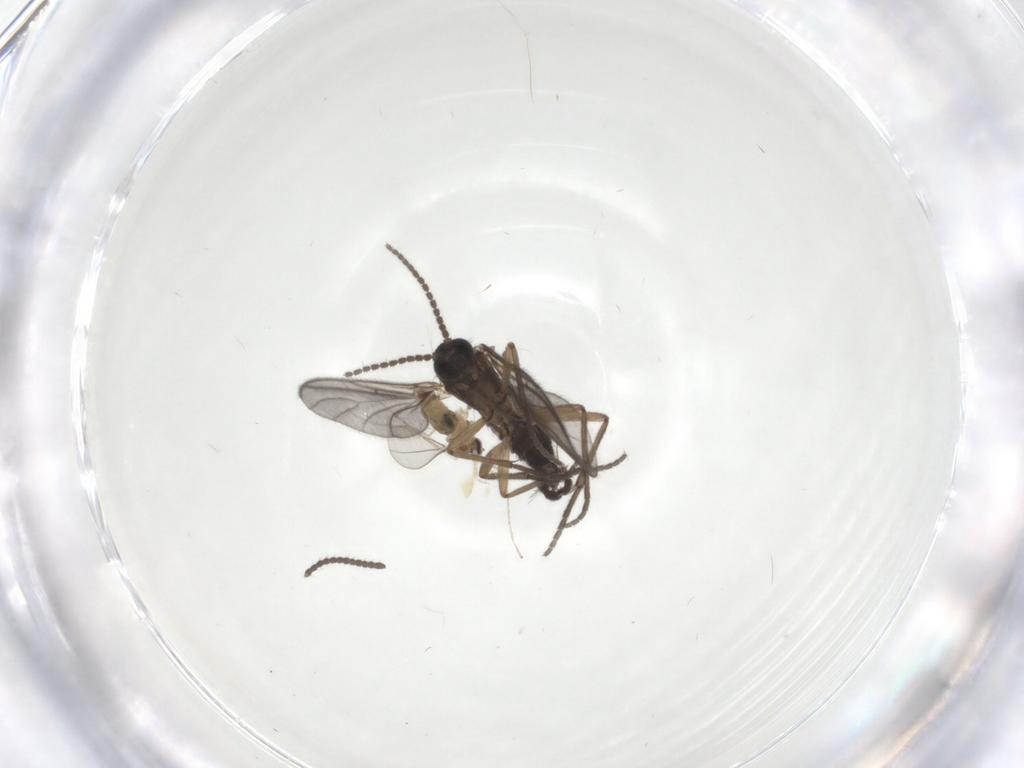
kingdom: Animalia
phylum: Arthropoda
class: Insecta
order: Diptera
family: Sciaridae
